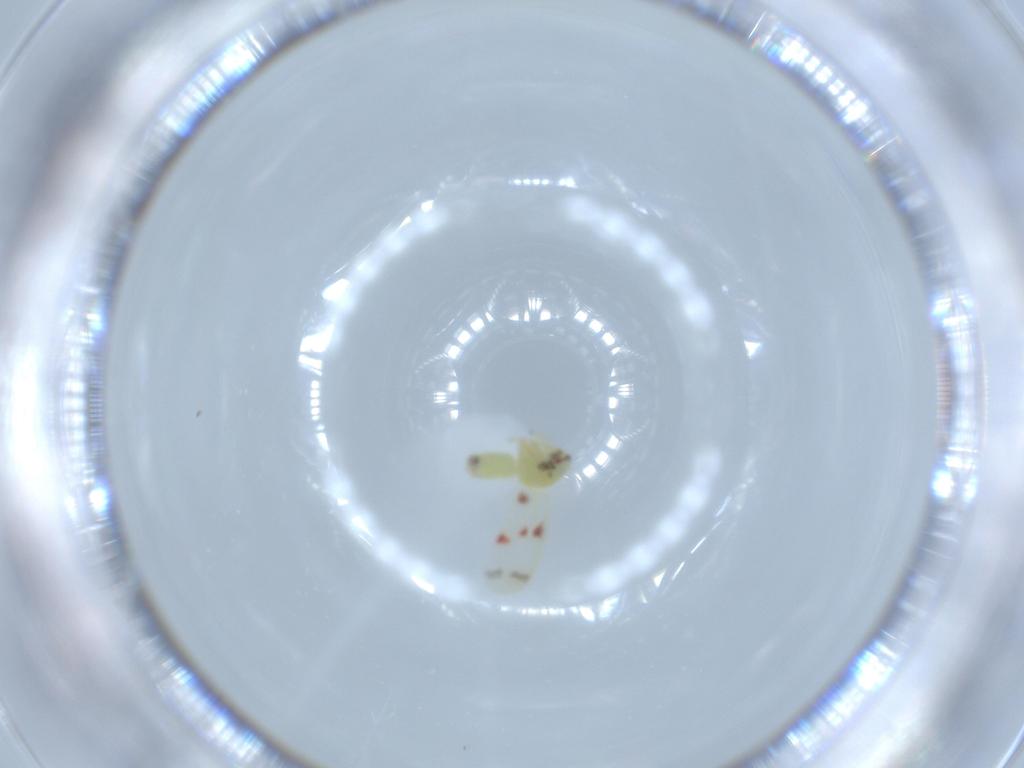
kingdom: Animalia
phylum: Arthropoda
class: Insecta
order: Hemiptera
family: Aleyrodidae
